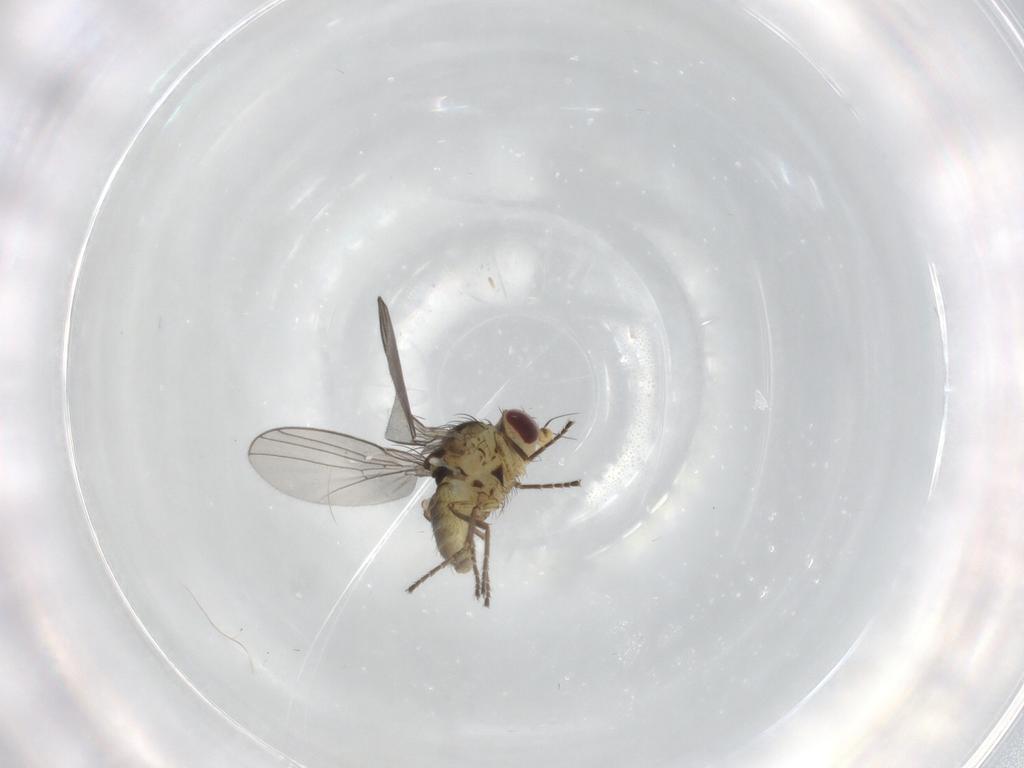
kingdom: Animalia
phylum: Arthropoda
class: Insecta
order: Diptera
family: Agromyzidae
